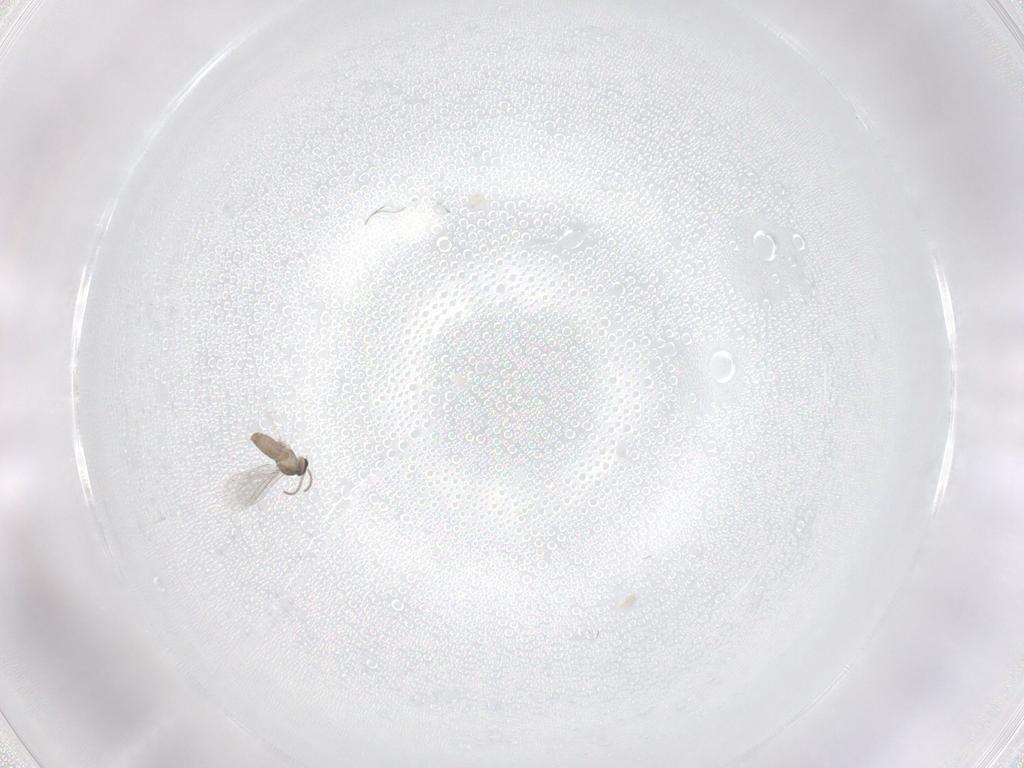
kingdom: Animalia
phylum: Arthropoda
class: Insecta
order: Diptera
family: Cecidomyiidae
